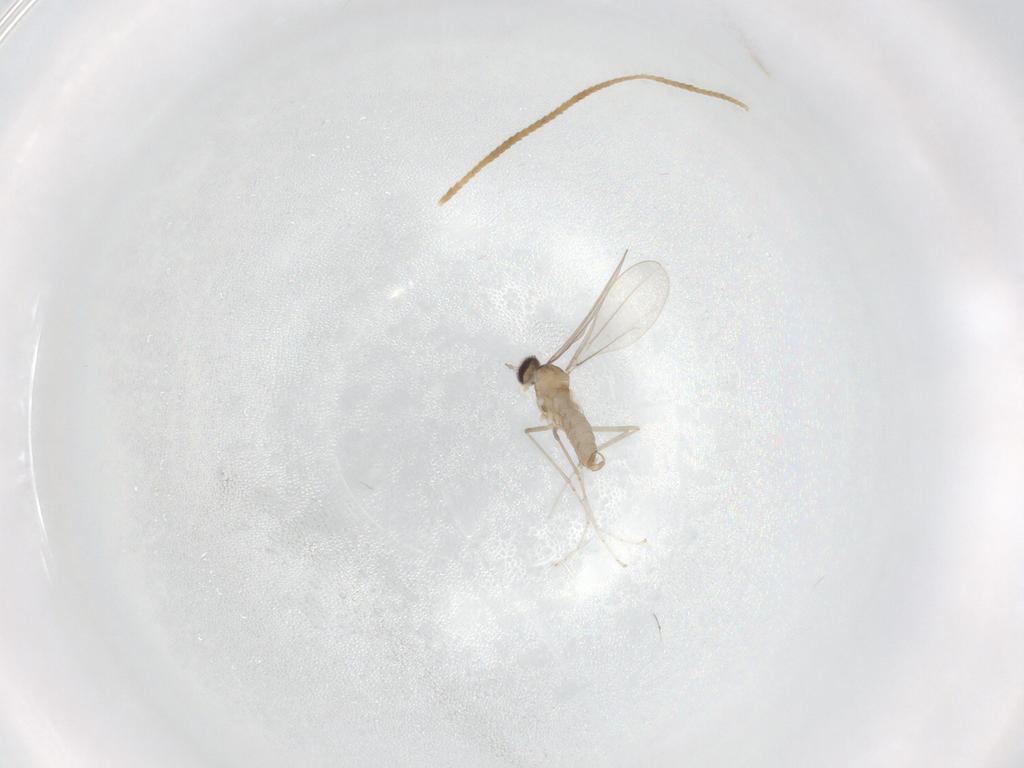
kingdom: Animalia
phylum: Arthropoda
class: Insecta
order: Diptera
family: Cecidomyiidae
